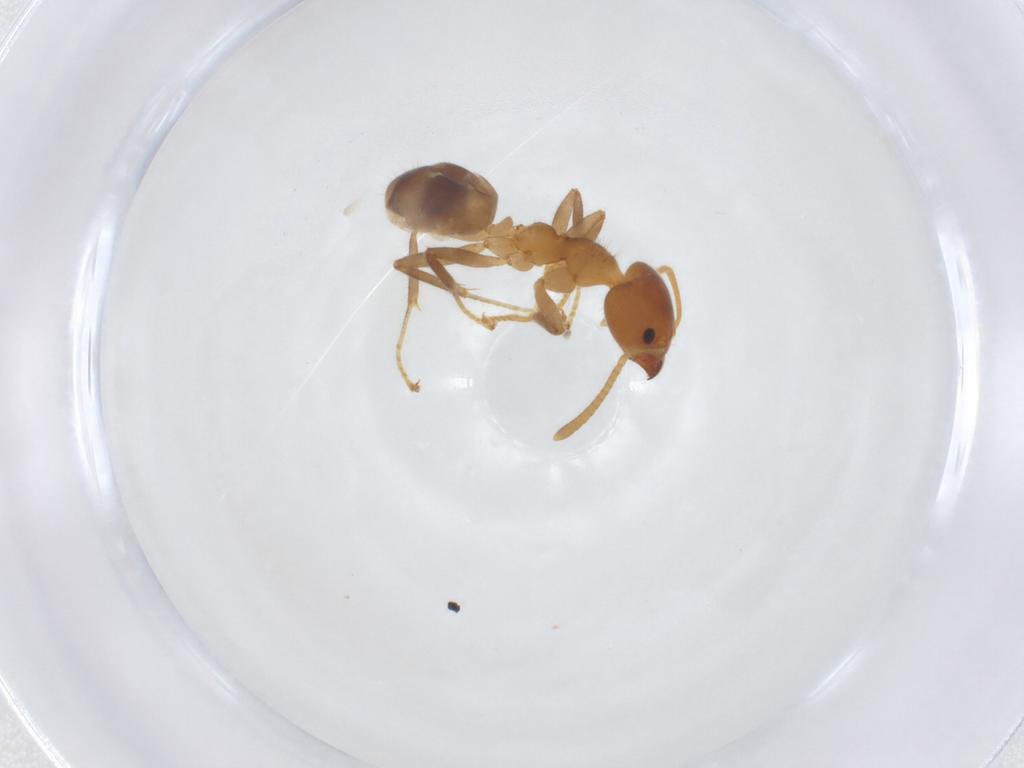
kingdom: Animalia
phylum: Arthropoda
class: Insecta
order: Hymenoptera
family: Formicidae
